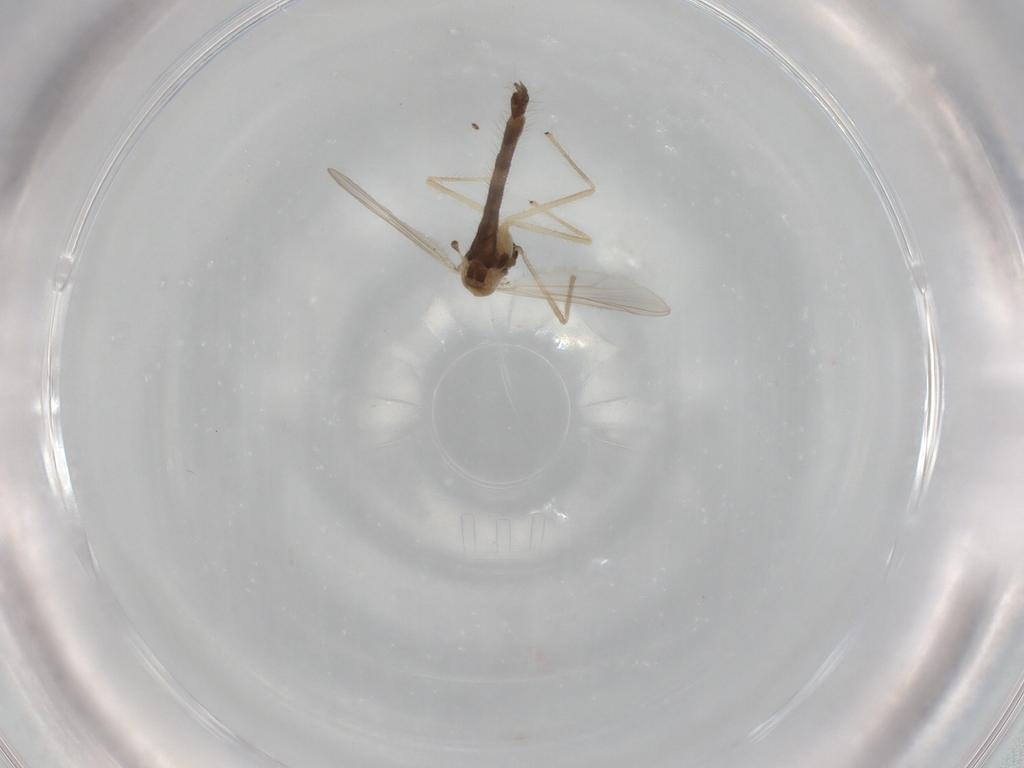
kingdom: Animalia
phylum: Arthropoda
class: Insecta
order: Diptera
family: Chironomidae
